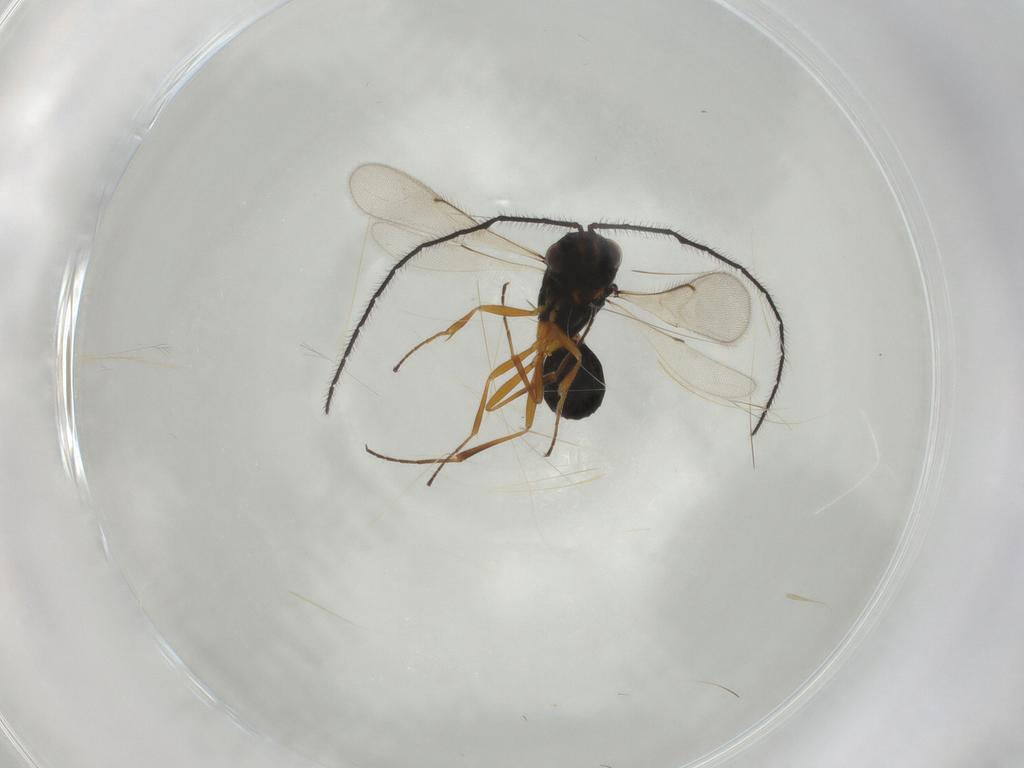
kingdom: Animalia
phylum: Arthropoda
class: Insecta
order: Hymenoptera
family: Scelionidae
